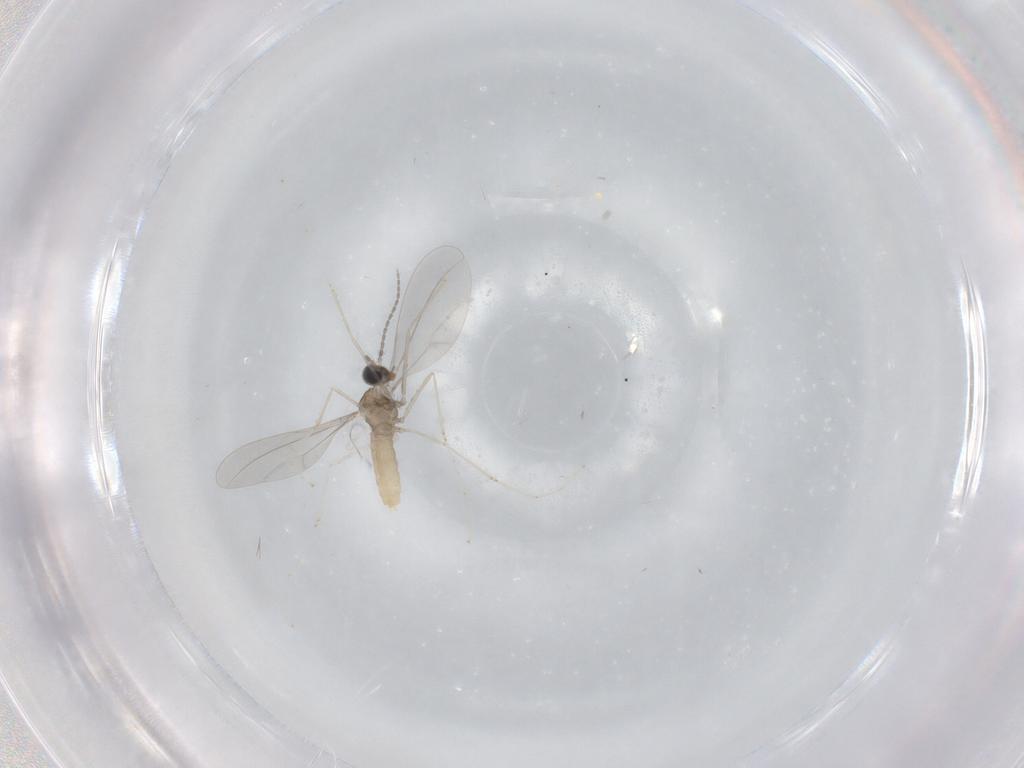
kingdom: Animalia
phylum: Arthropoda
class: Insecta
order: Diptera
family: Cecidomyiidae
